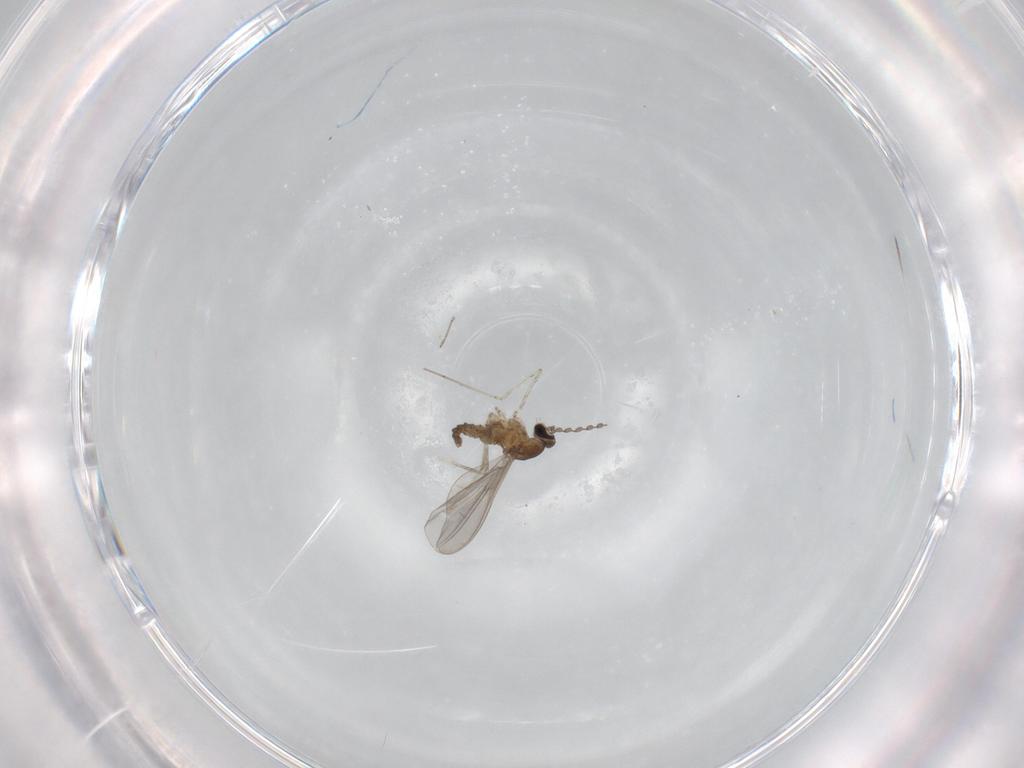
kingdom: Animalia
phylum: Arthropoda
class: Insecta
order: Diptera
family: Cecidomyiidae
